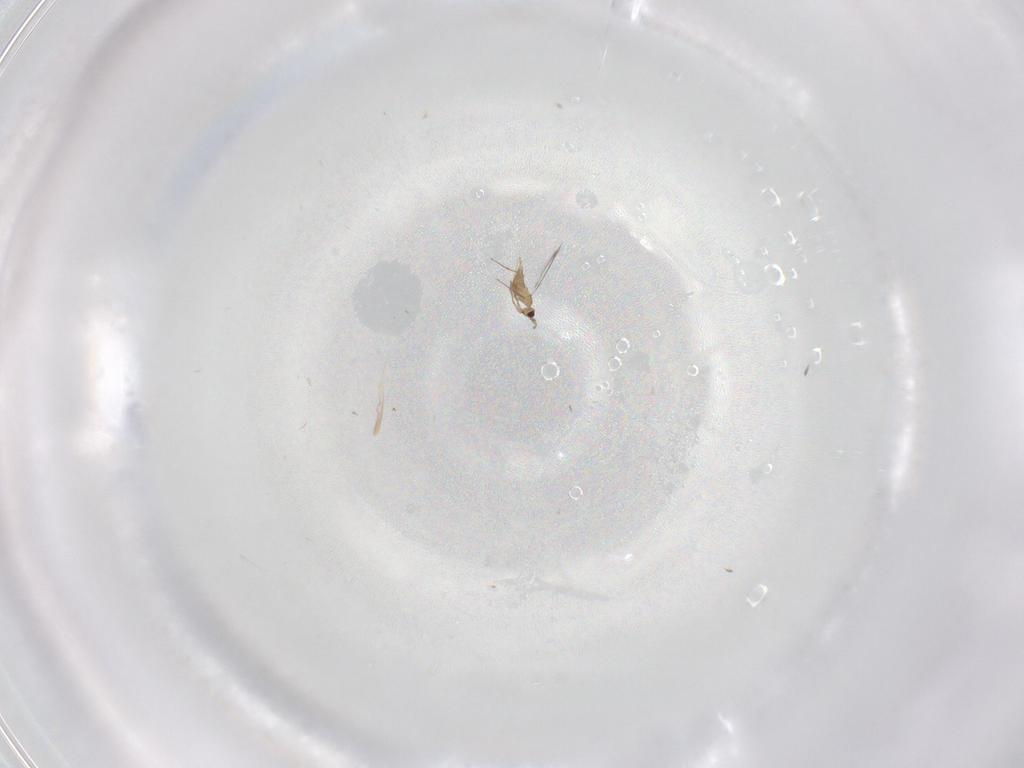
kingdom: Animalia
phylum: Arthropoda
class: Insecta
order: Hymenoptera
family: Mymaridae
